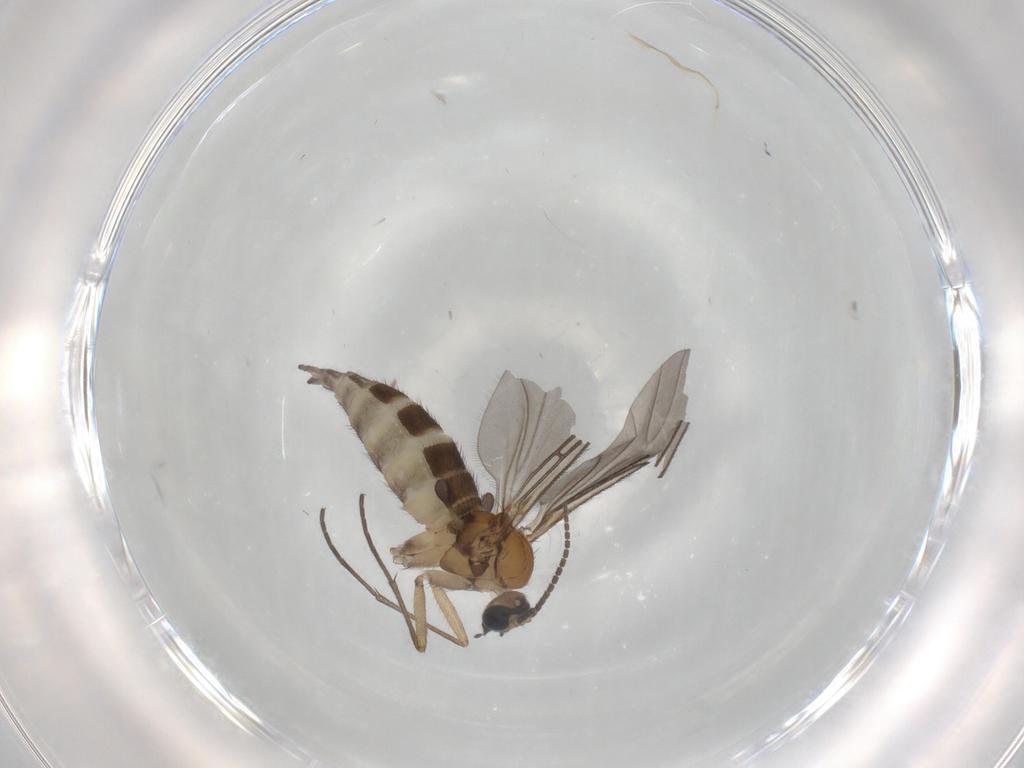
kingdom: Animalia
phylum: Arthropoda
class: Insecta
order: Diptera
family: Sciaridae
